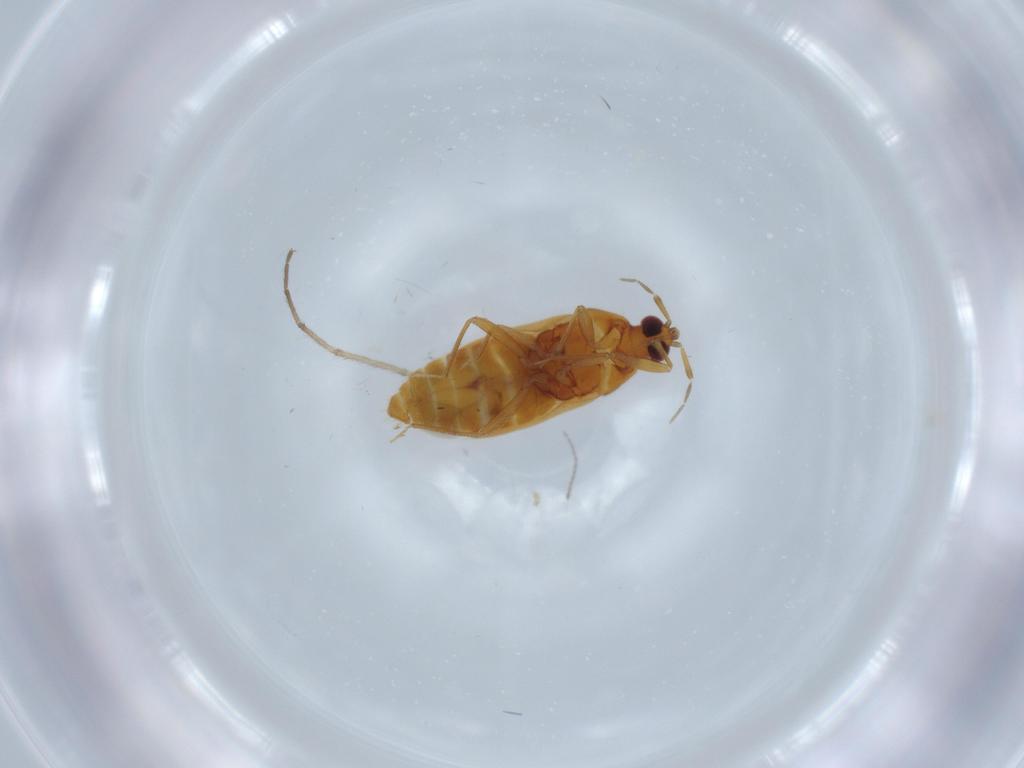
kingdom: Animalia
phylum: Arthropoda
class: Insecta
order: Hemiptera
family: Anthocoridae
